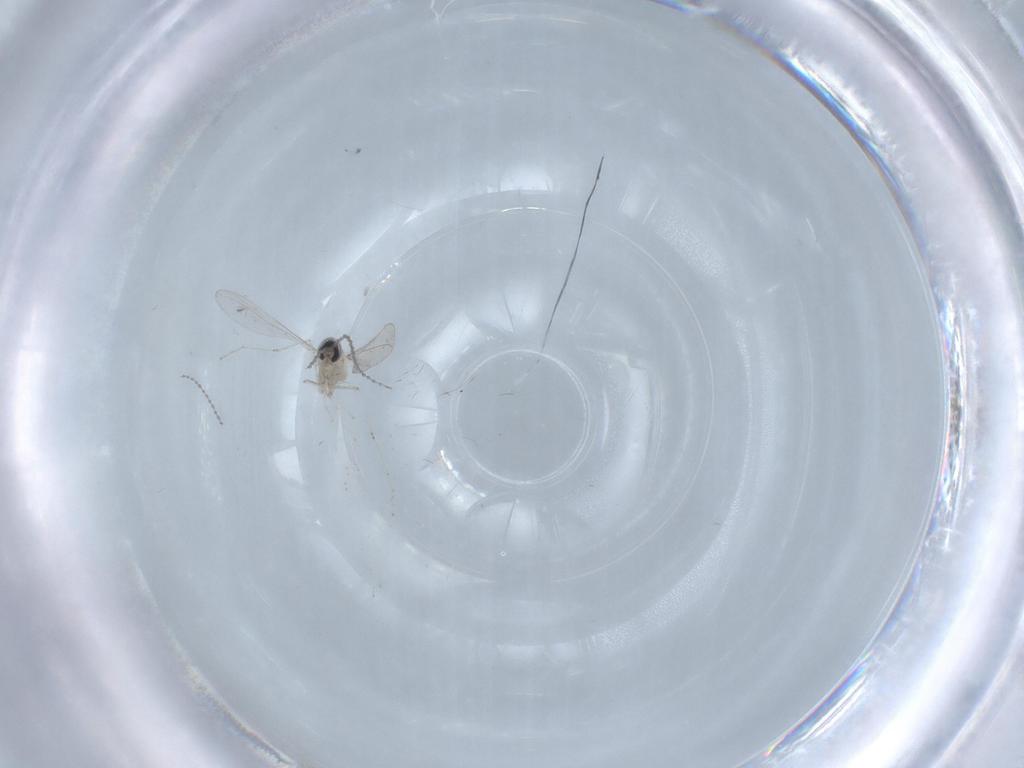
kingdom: Animalia
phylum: Arthropoda
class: Insecta
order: Diptera
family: Cecidomyiidae
